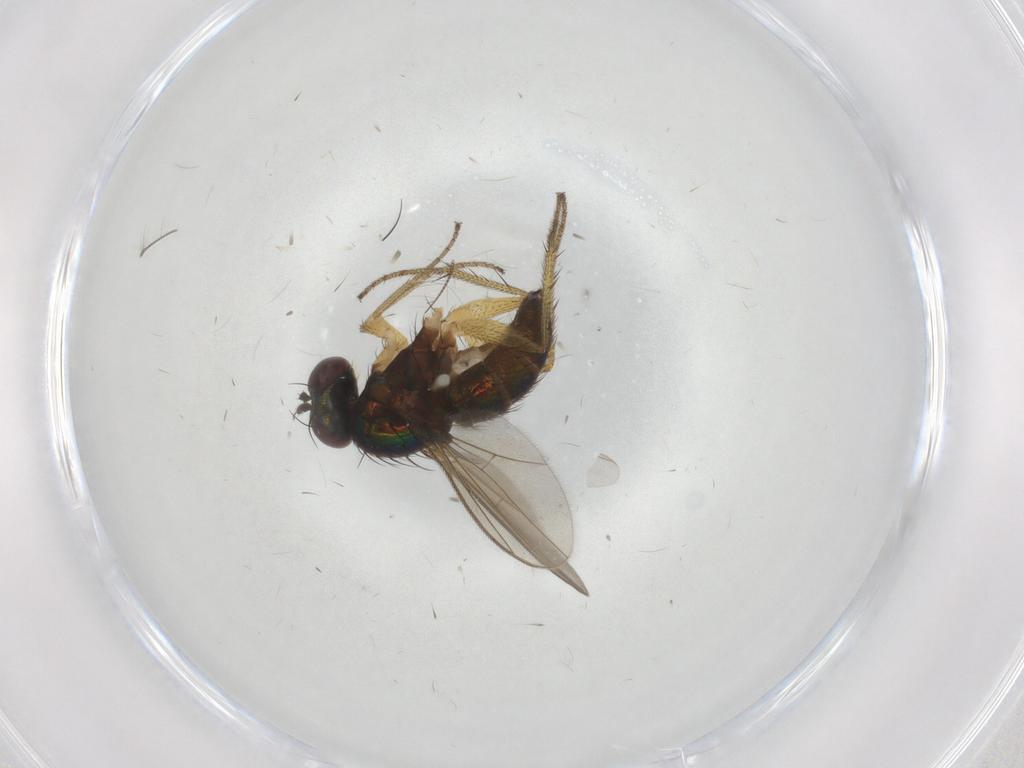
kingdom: Animalia
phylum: Arthropoda
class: Insecta
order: Diptera
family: Chironomidae
